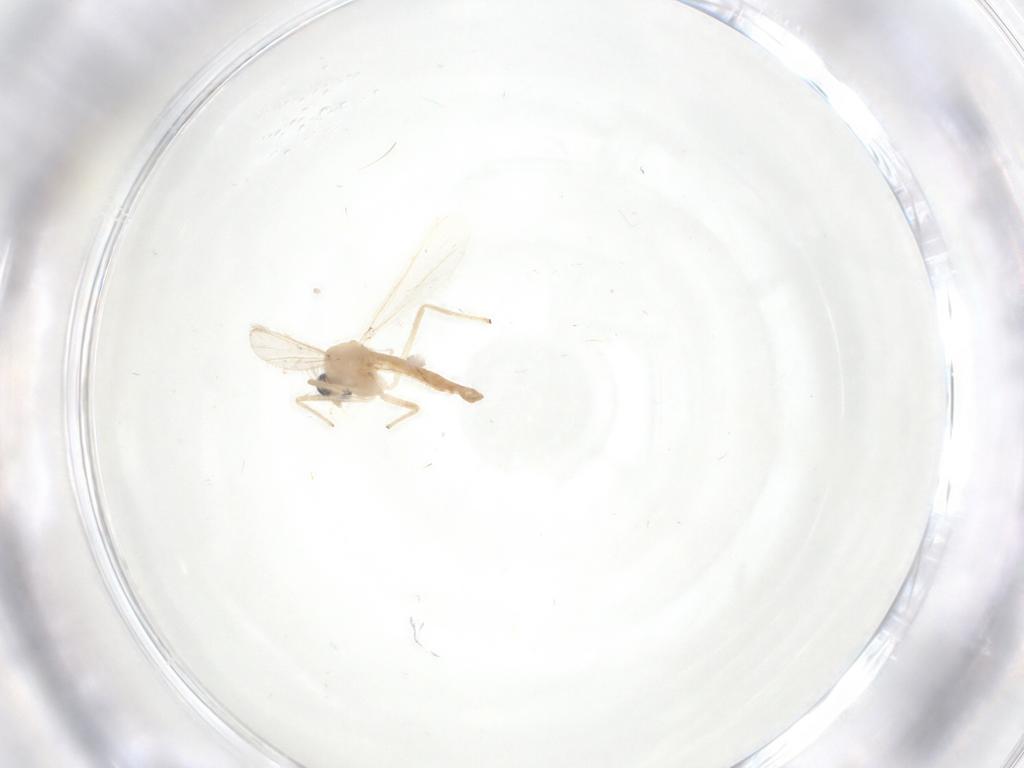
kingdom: Animalia
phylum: Arthropoda
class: Insecta
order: Diptera
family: Chironomidae
